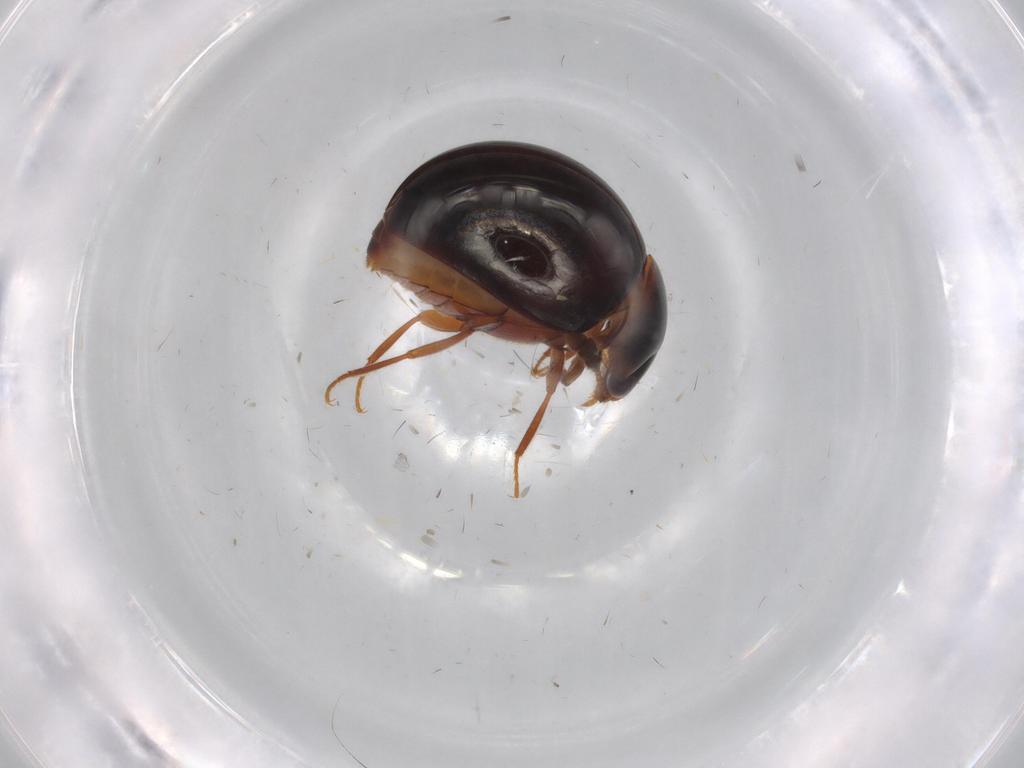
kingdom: Animalia
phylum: Arthropoda
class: Insecta
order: Coleoptera
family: Leiodidae
